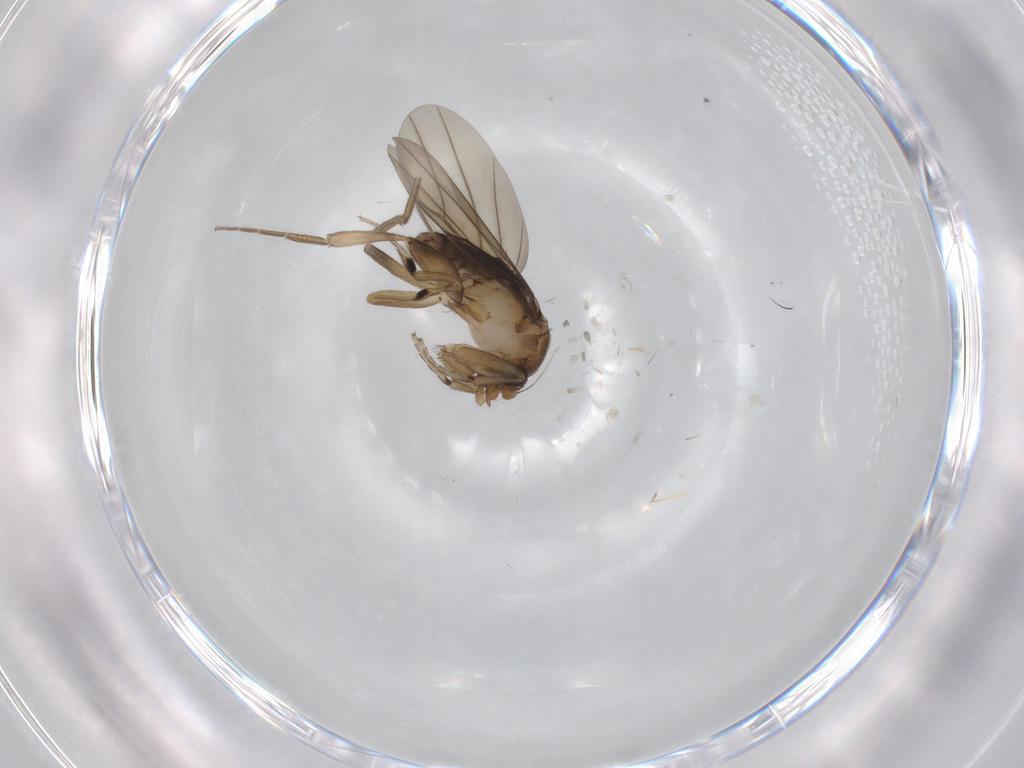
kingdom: Animalia
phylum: Arthropoda
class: Insecta
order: Diptera
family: Phoridae
